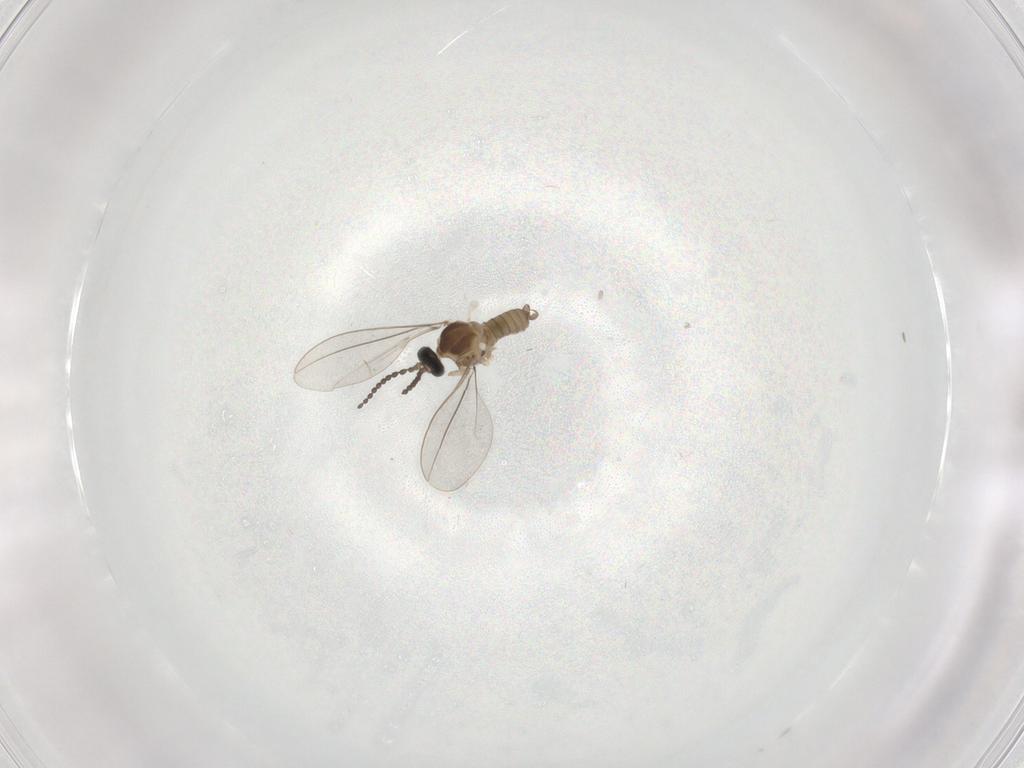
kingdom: Animalia
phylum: Arthropoda
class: Insecta
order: Diptera
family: Cecidomyiidae
